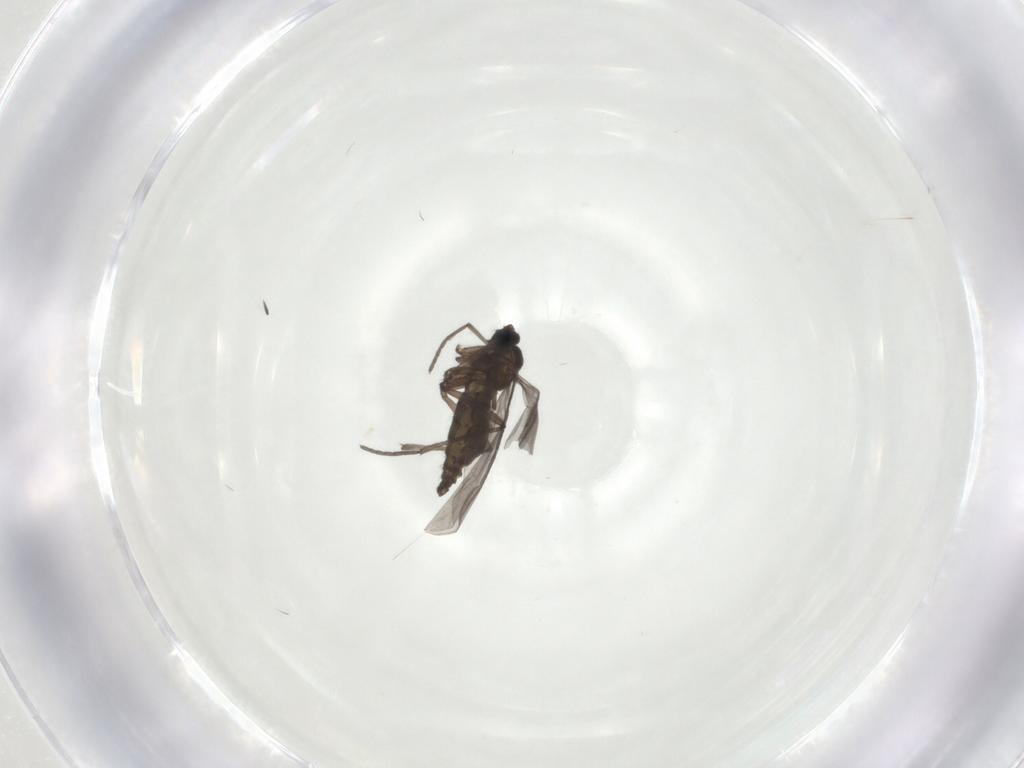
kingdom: Animalia
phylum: Arthropoda
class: Insecta
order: Diptera
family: Sciaridae
